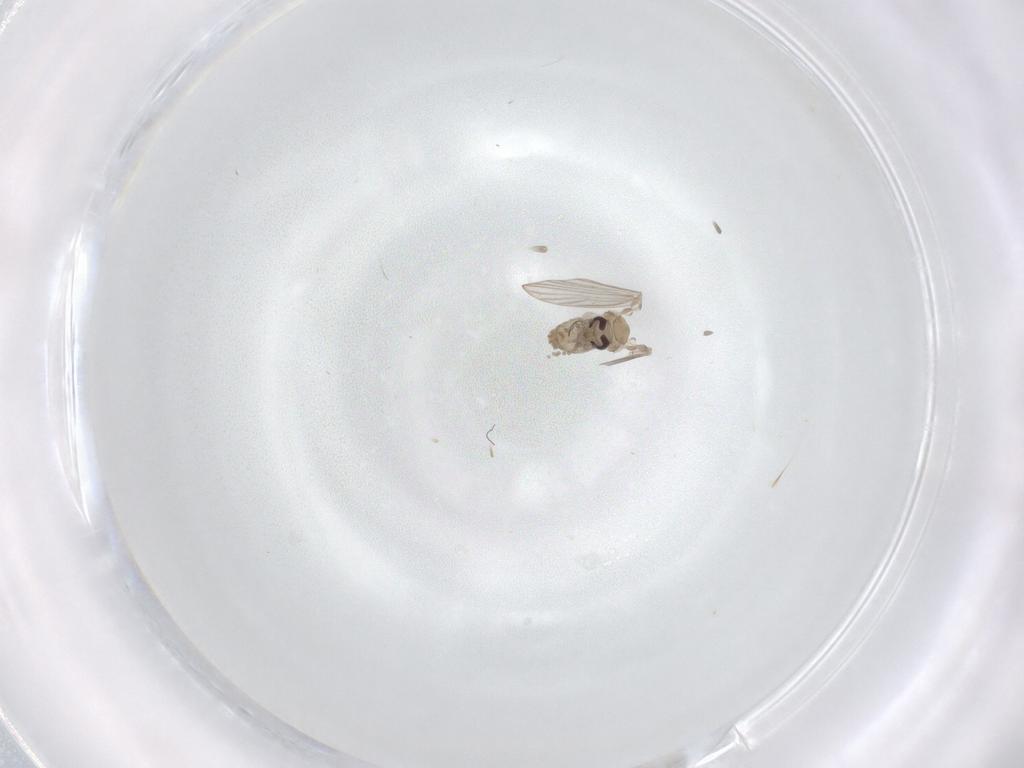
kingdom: Animalia
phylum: Arthropoda
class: Insecta
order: Diptera
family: Psychodidae
